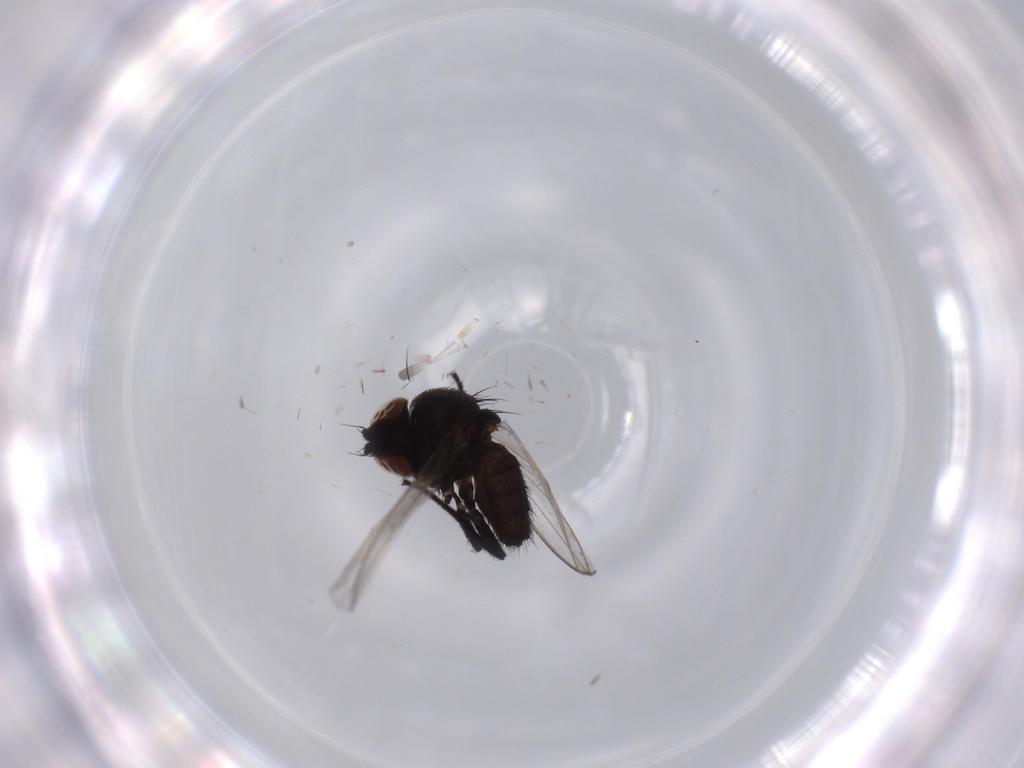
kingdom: Animalia
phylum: Arthropoda
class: Insecta
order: Diptera
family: Milichiidae
